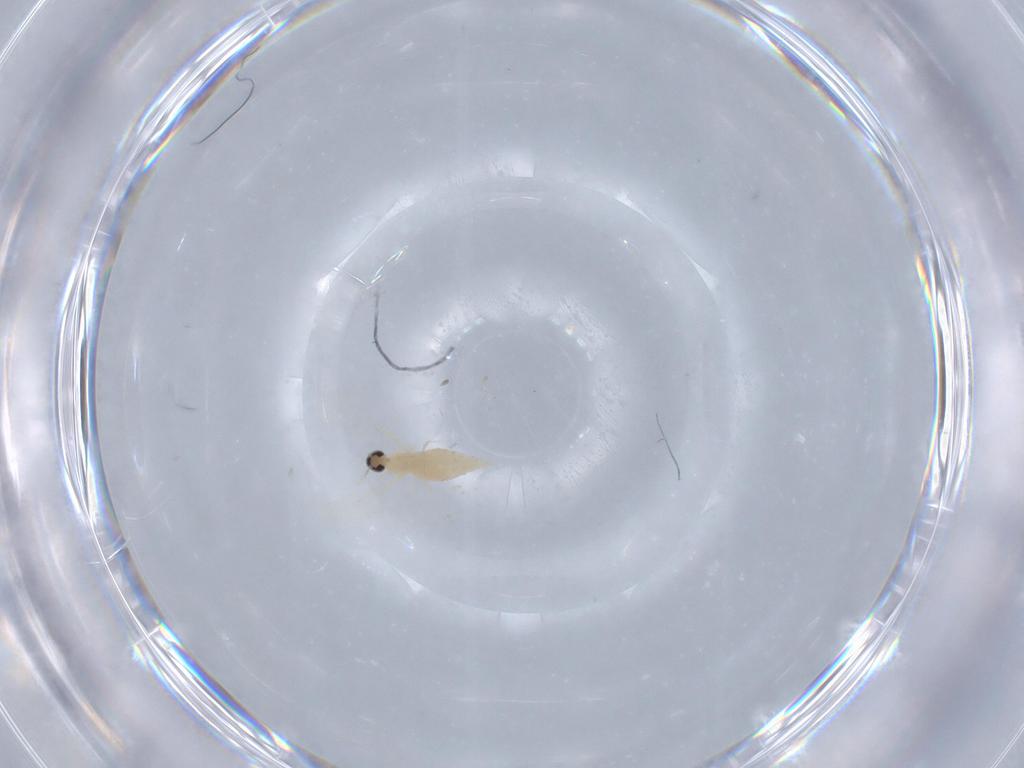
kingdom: Animalia
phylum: Arthropoda
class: Insecta
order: Diptera
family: Cecidomyiidae
